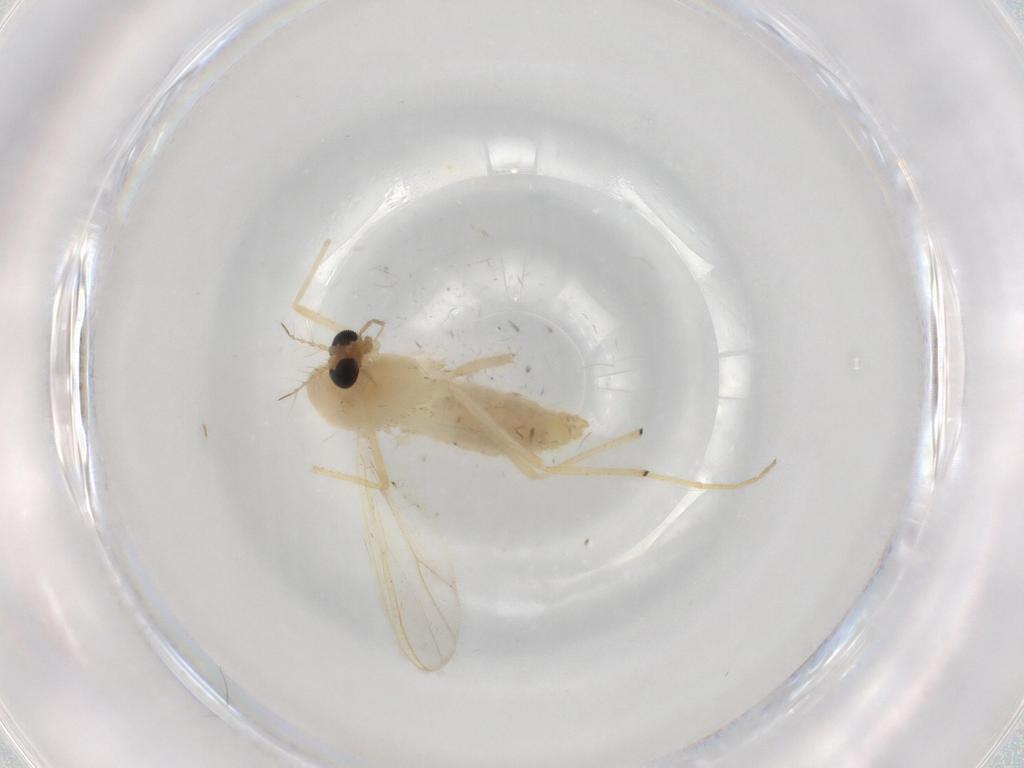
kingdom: Animalia
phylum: Arthropoda
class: Insecta
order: Diptera
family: Chironomidae
